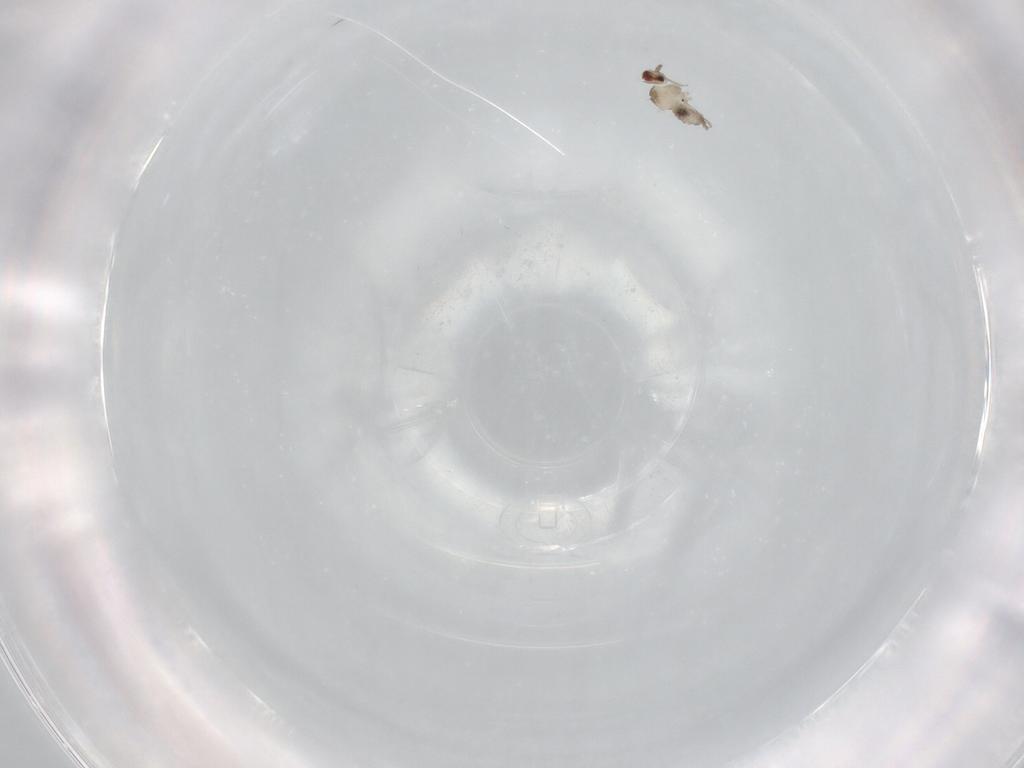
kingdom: Animalia
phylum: Arthropoda
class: Insecta
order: Diptera
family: Cecidomyiidae
